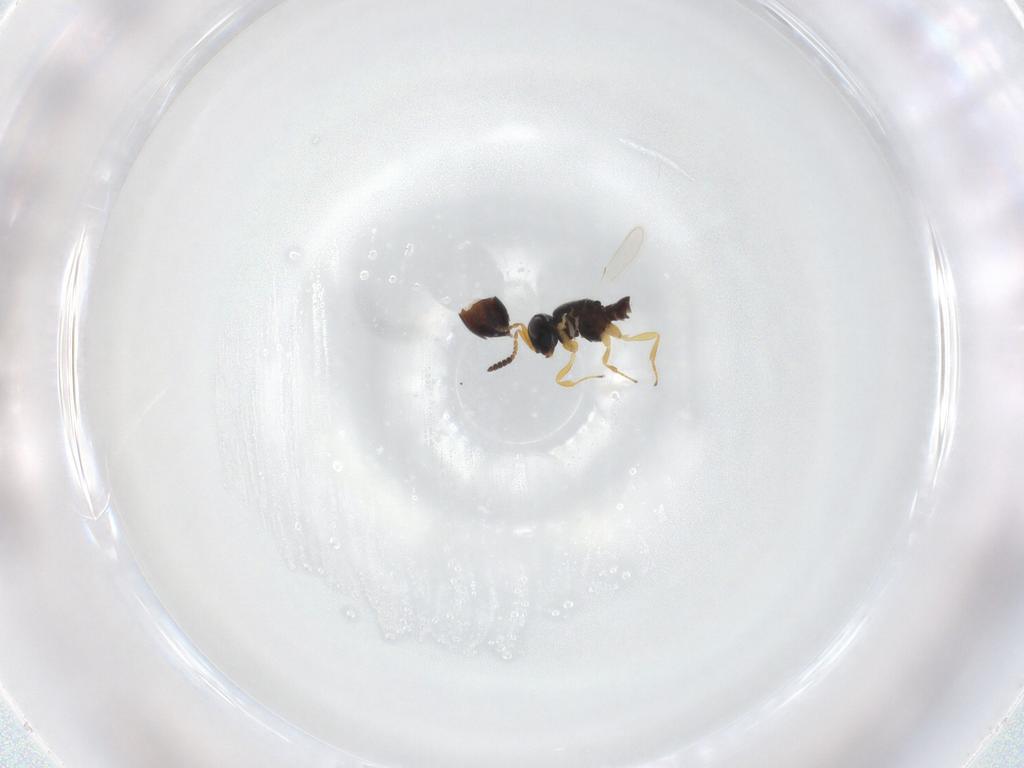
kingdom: Animalia
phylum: Arthropoda
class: Insecta
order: Hymenoptera
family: Scelionidae
